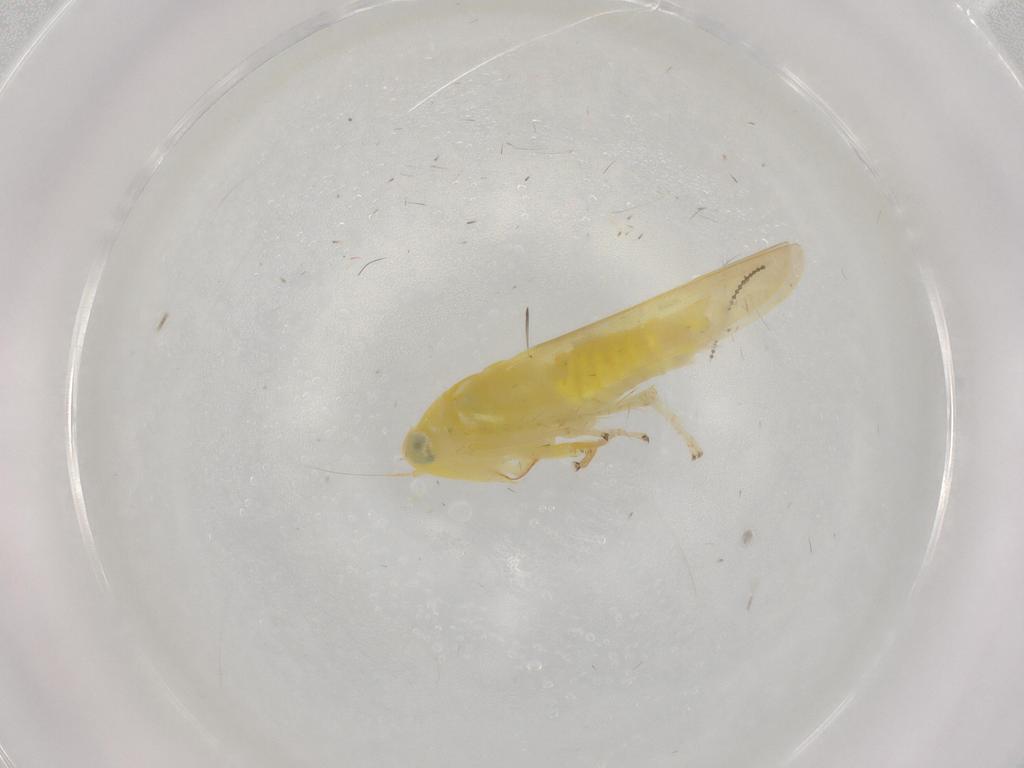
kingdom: Animalia
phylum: Arthropoda
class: Insecta
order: Hemiptera
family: Cicadellidae
